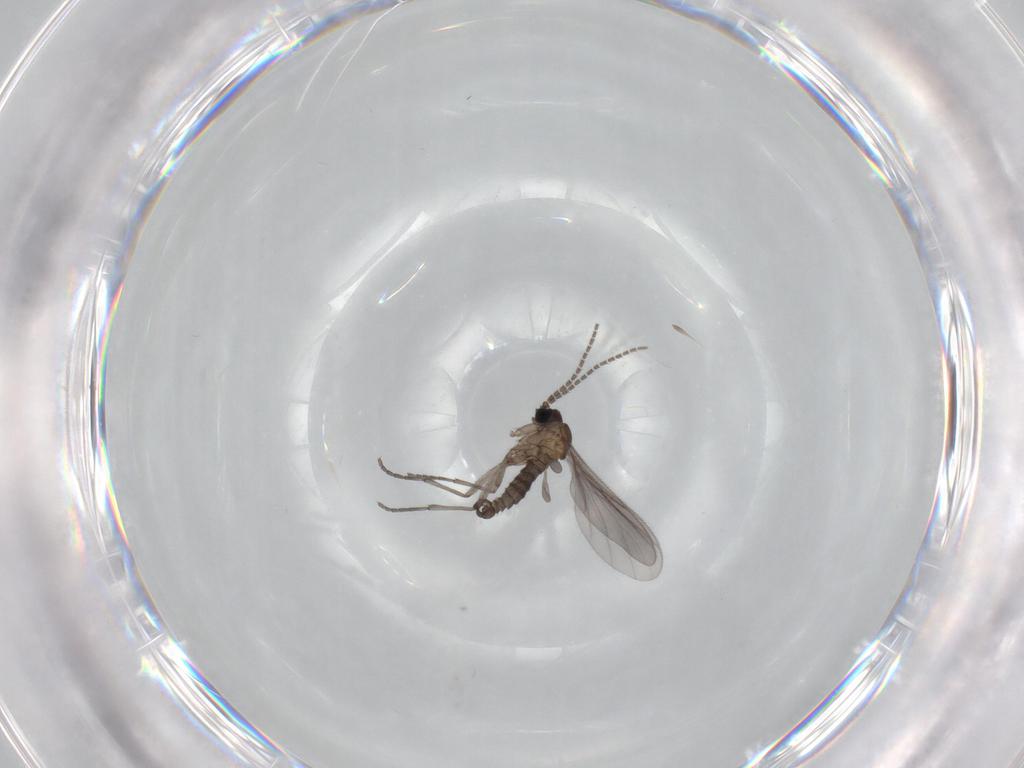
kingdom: Animalia
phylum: Arthropoda
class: Insecta
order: Diptera
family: Sciaridae
